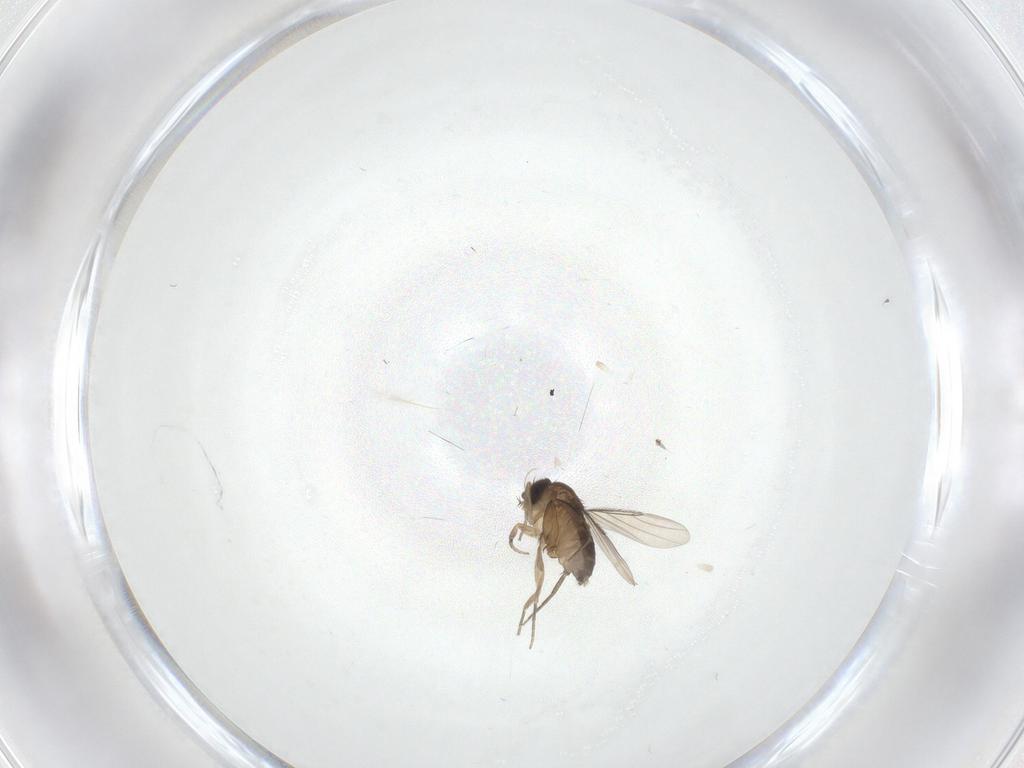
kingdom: Animalia
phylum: Arthropoda
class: Insecta
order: Diptera
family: Phoridae
